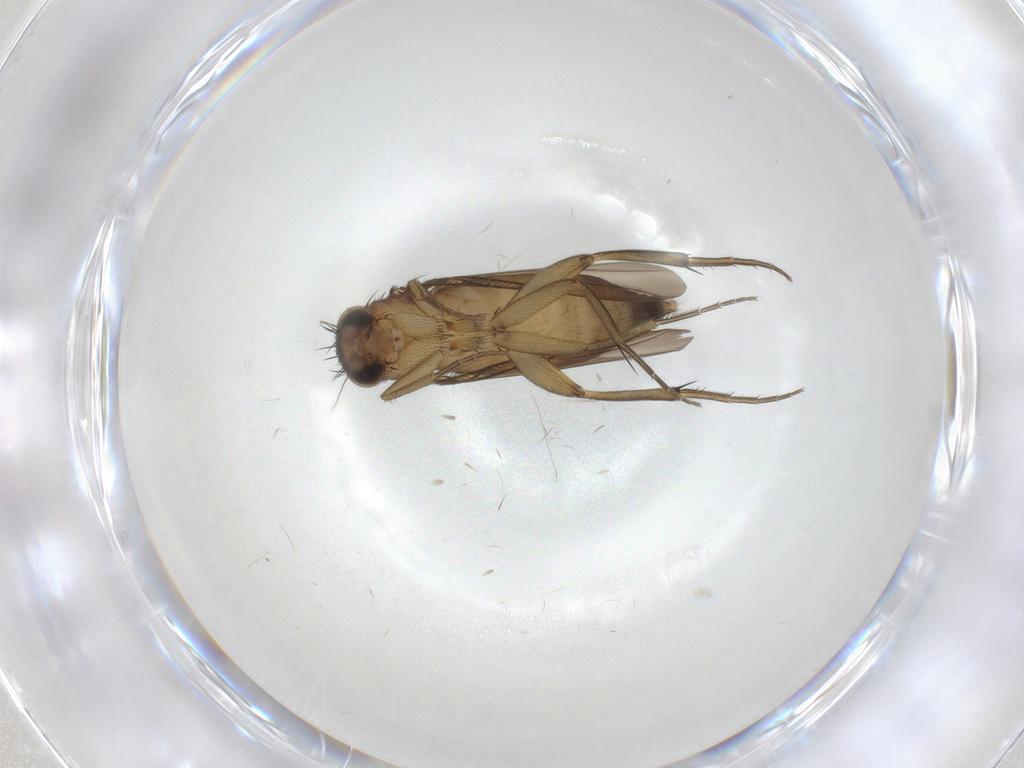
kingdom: Animalia
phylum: Arthropoda
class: Insecta
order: Diptera
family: Phoridae
